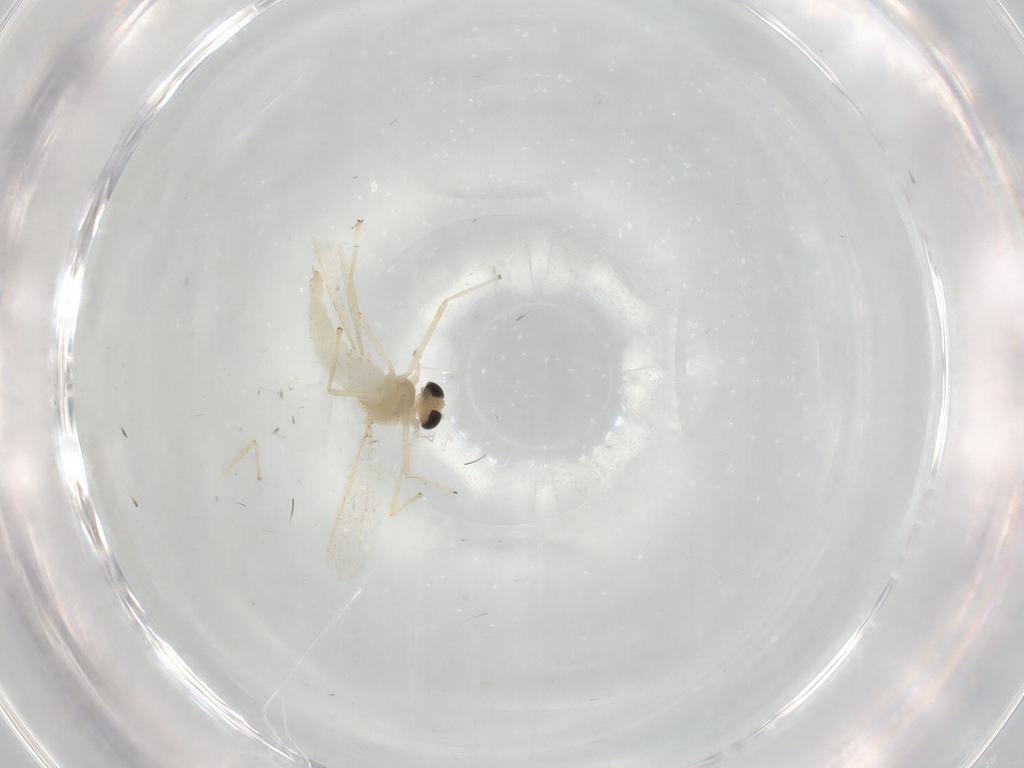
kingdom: Animalia
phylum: Arthropoda
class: Insecta
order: Diptera
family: Chironomidae
